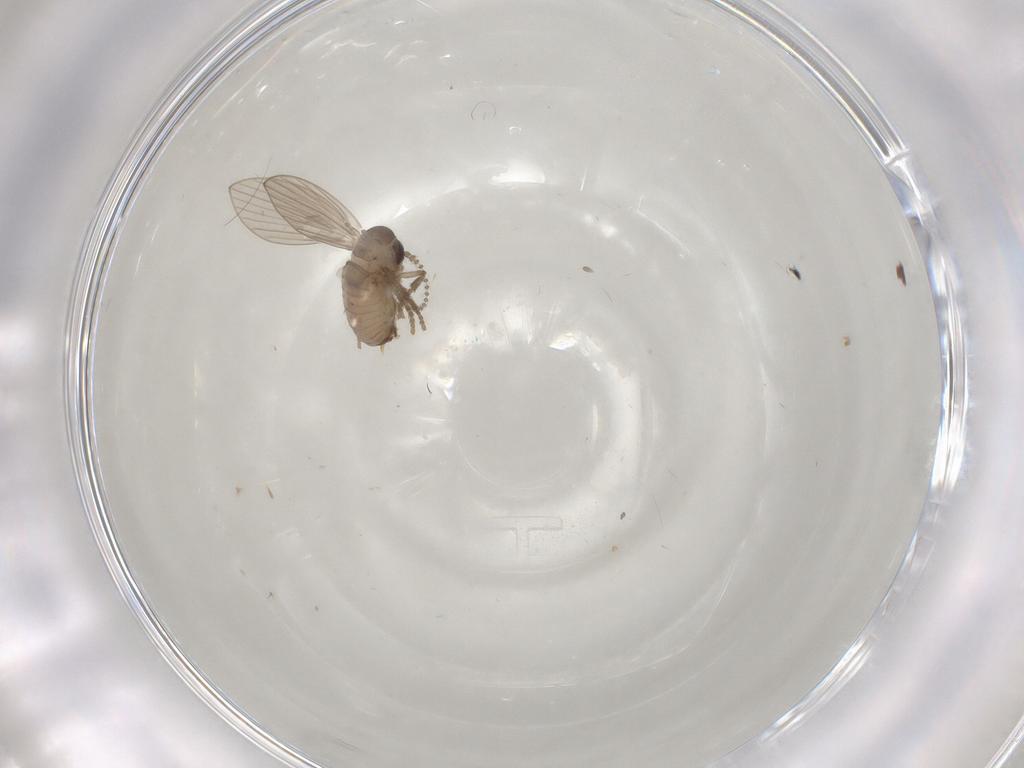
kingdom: Animalia
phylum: Arthropoda
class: Insecta
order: Diptera
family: Psychodidae
